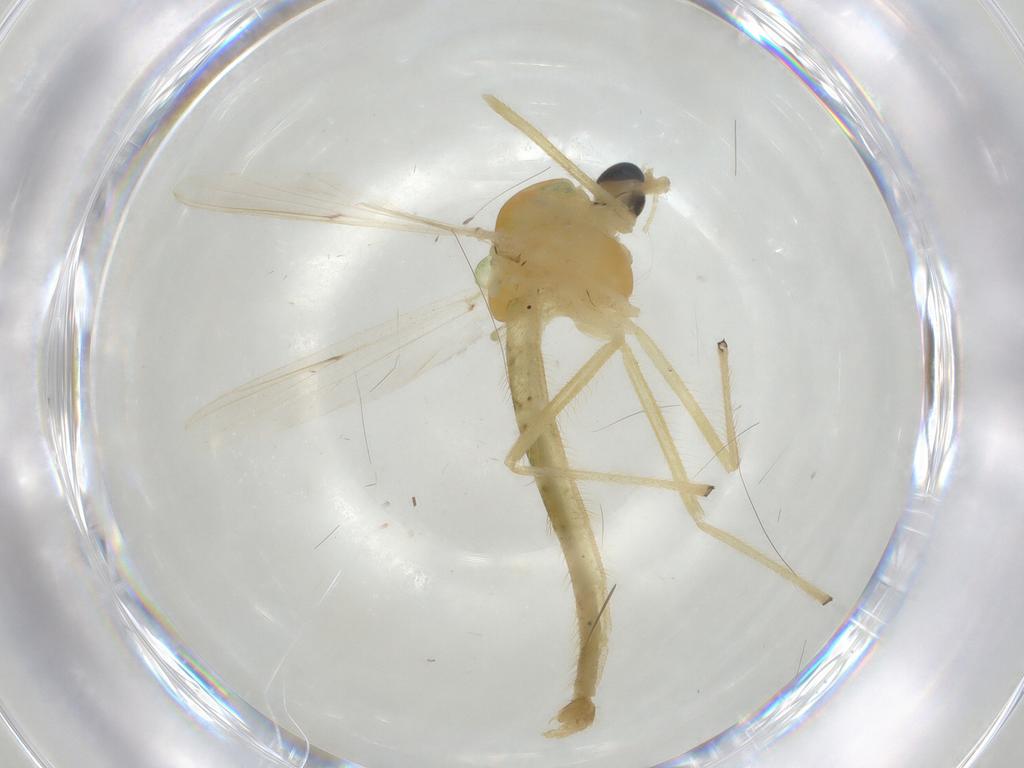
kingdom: Animalia
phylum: Arthropoda
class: Insecta
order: Diptera
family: Chironomidae
